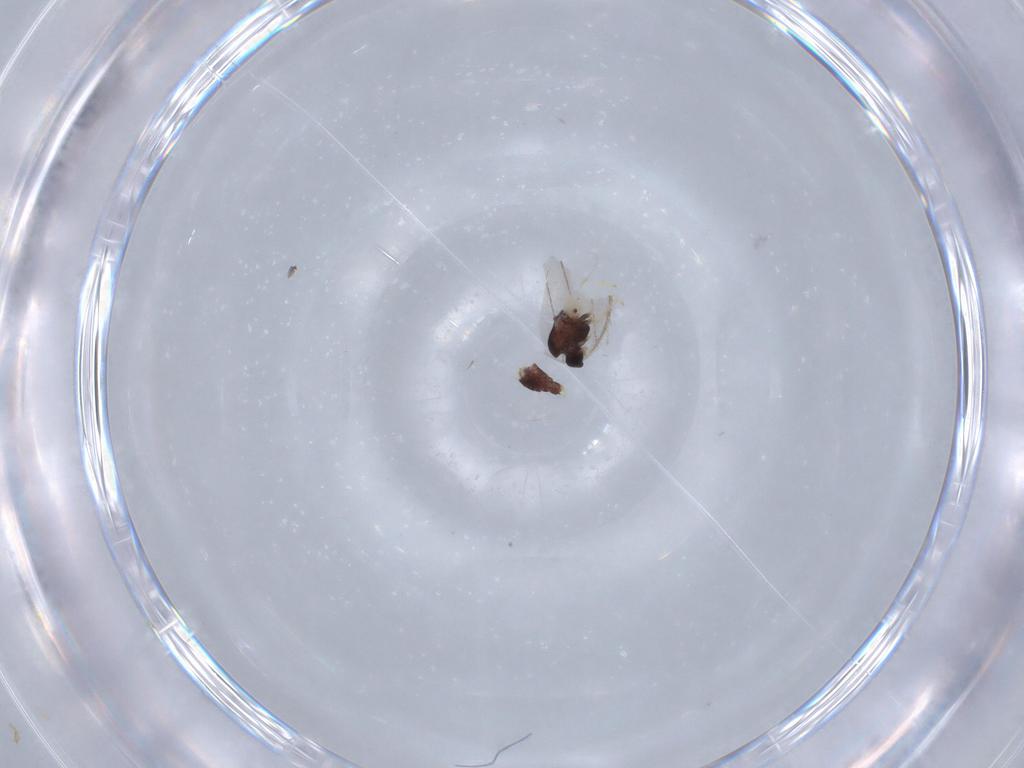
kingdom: Animalia
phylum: Arthropoda
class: Insecta
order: Diptera
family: Limoniidae
